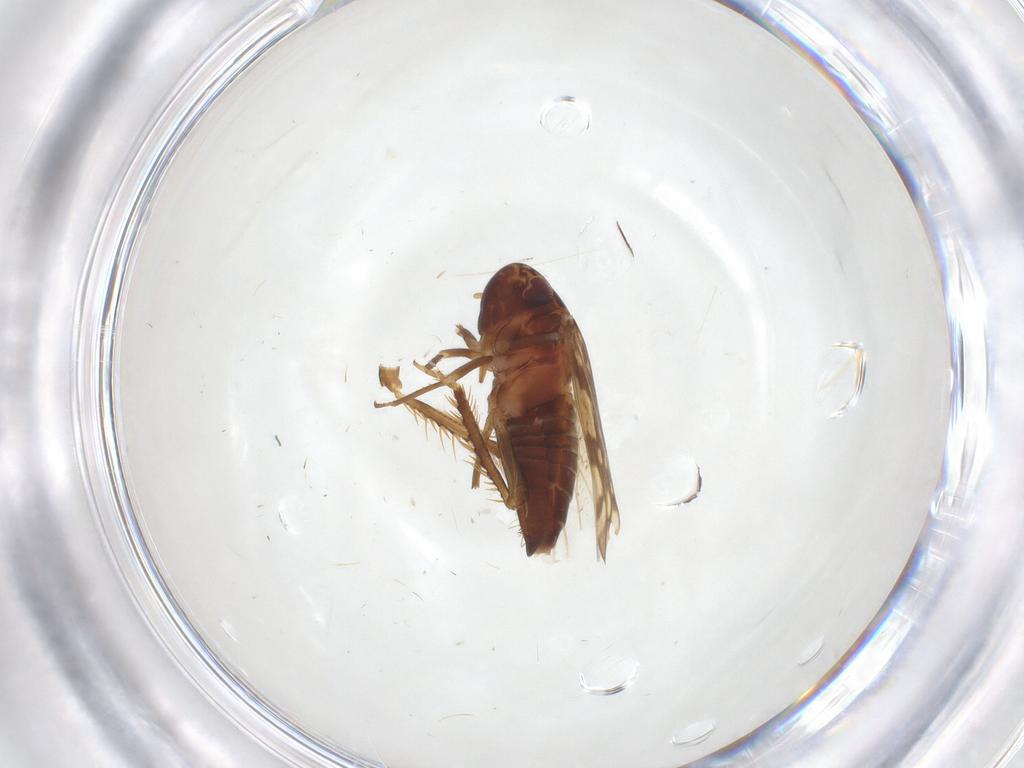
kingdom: Animalia
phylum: Arthropoda
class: Insecta
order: Hemiptera
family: Cicadellidae
